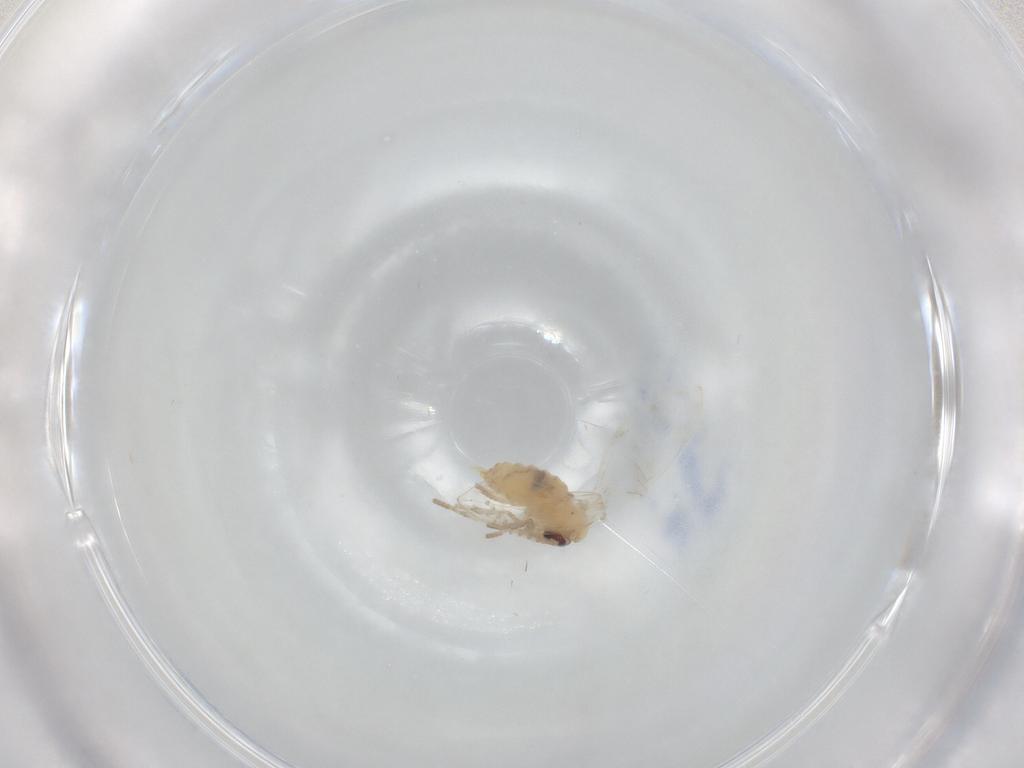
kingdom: Animalia
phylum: Arthropoda
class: Insecta
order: Diptera
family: Psychodidae
